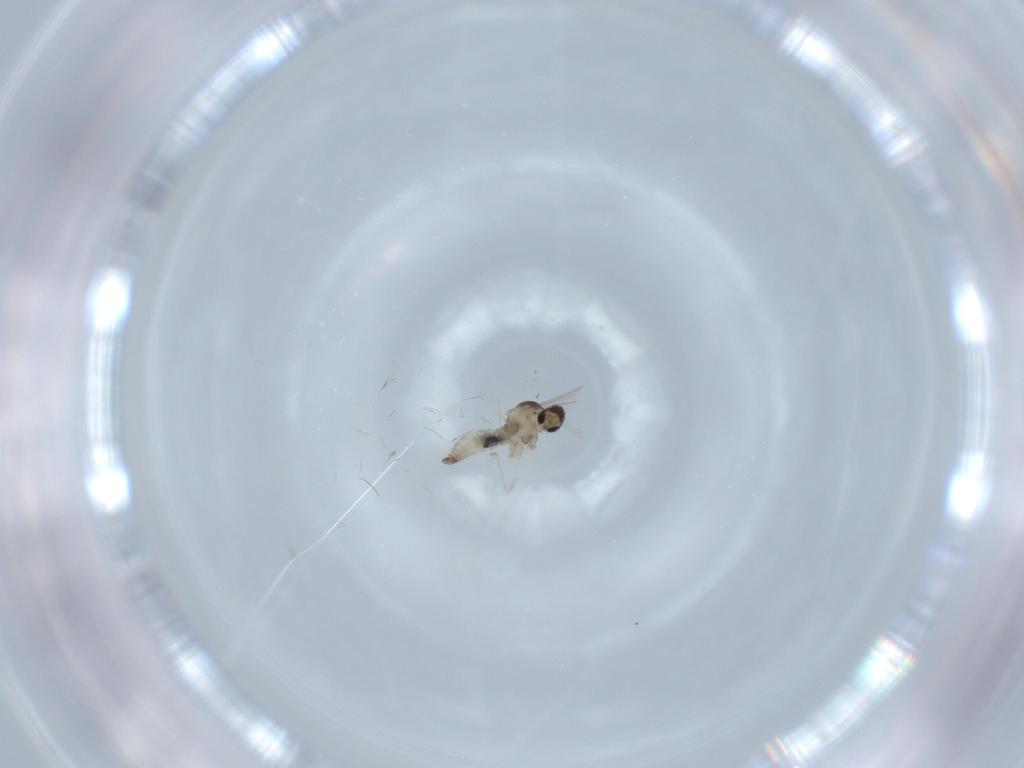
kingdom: Animalia
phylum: Arthropoda
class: Insecta
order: Diptera
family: Cecidomyiidae
